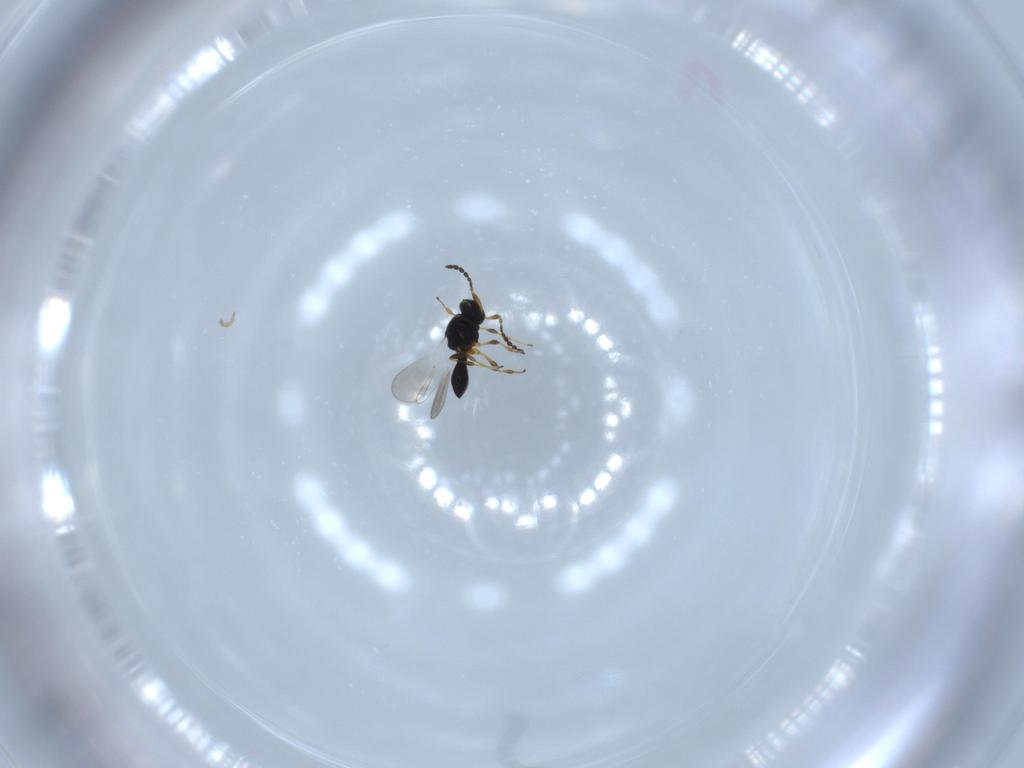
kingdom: Animalia
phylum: Arthropoda
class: Insecta
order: Hymenoptera
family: Platygastridae
